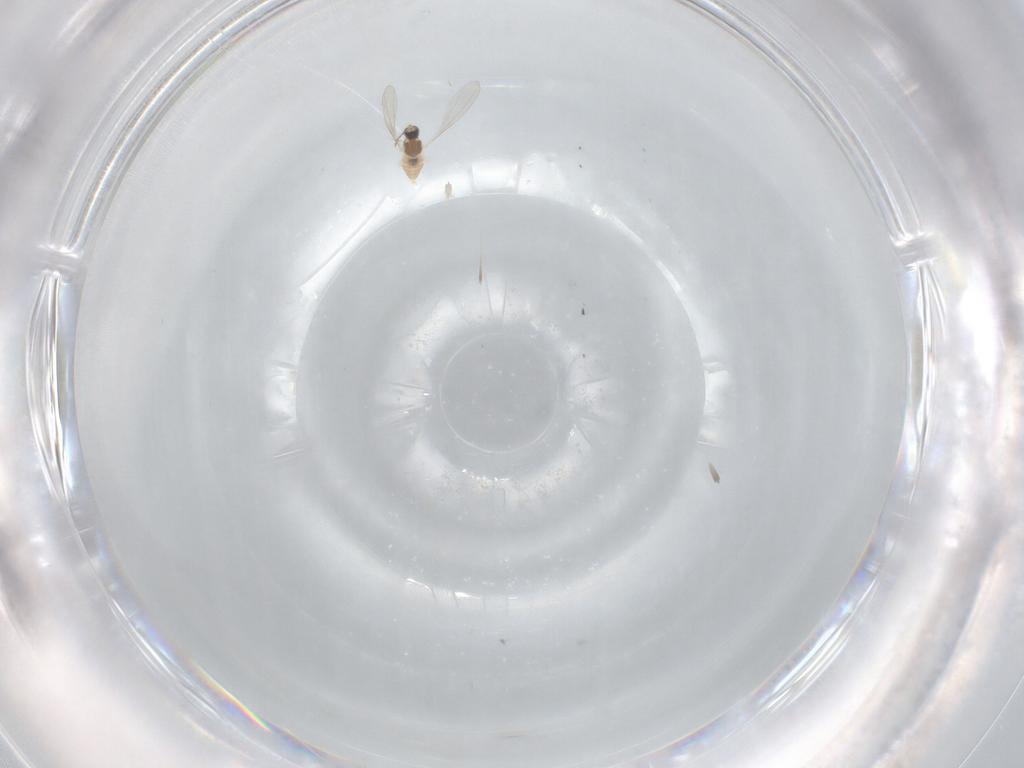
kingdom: Animalia
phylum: Arthropoda
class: Insecta
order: Diptera
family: Cecidomyiidae
